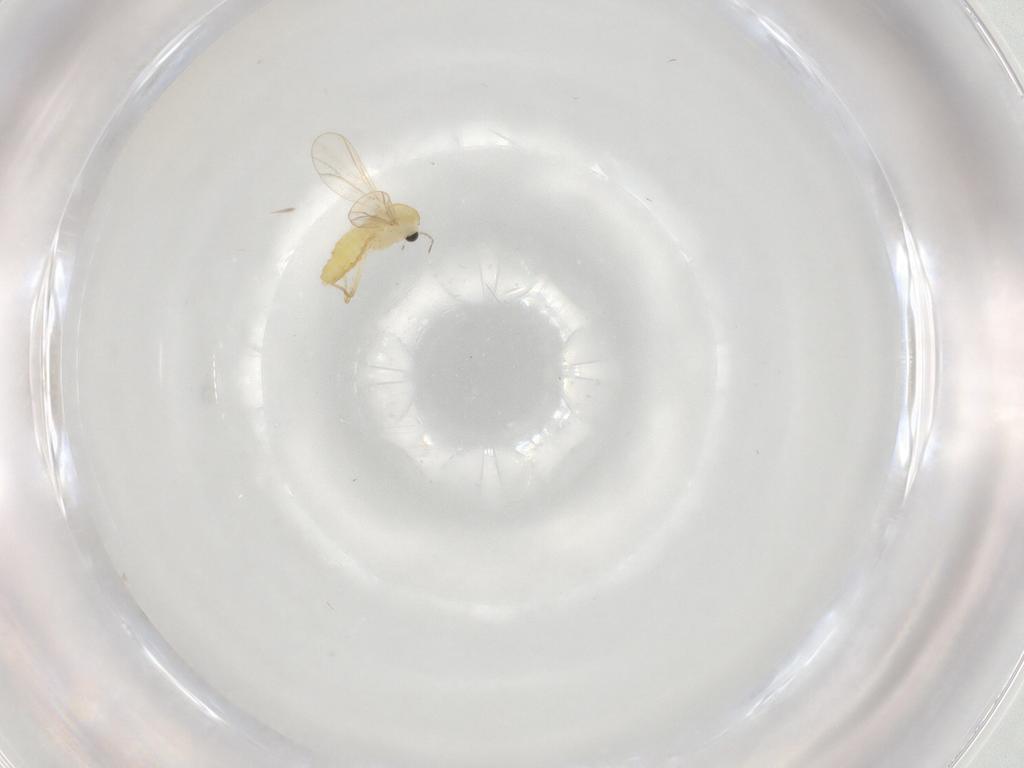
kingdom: Animalia
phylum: Arthropoda
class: Insecta
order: Diptera
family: Chironomidae
